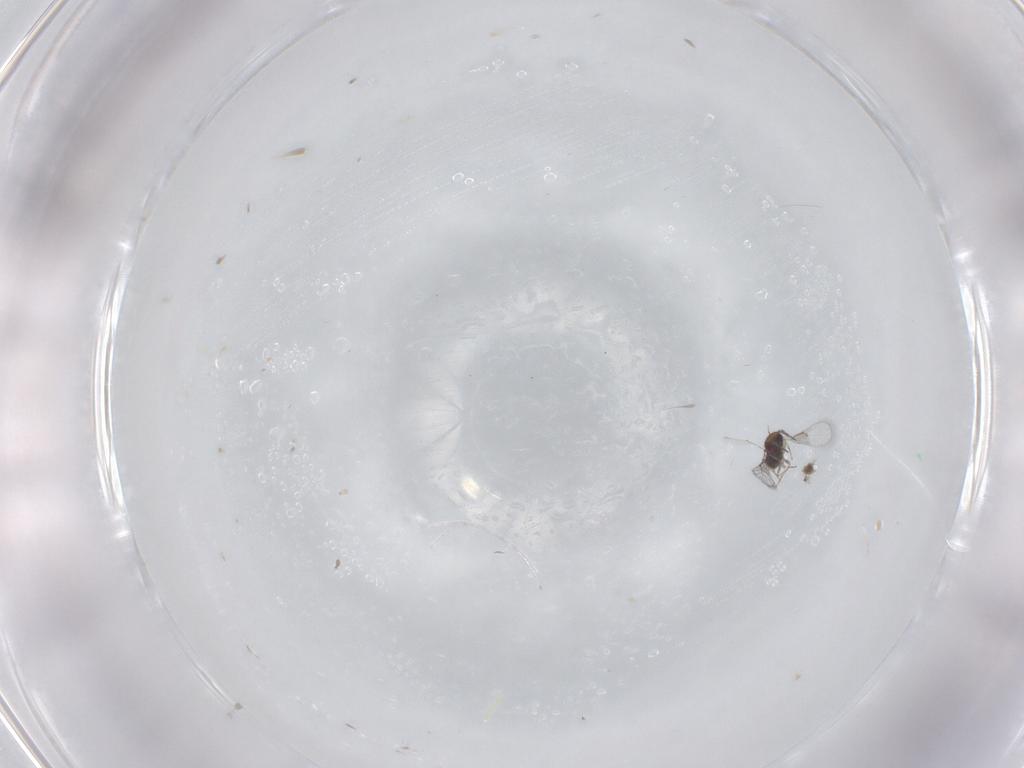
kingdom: Animalia
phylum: Arthropoda
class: Insecta
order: Hymenoptera
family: Trichogrammatidae
